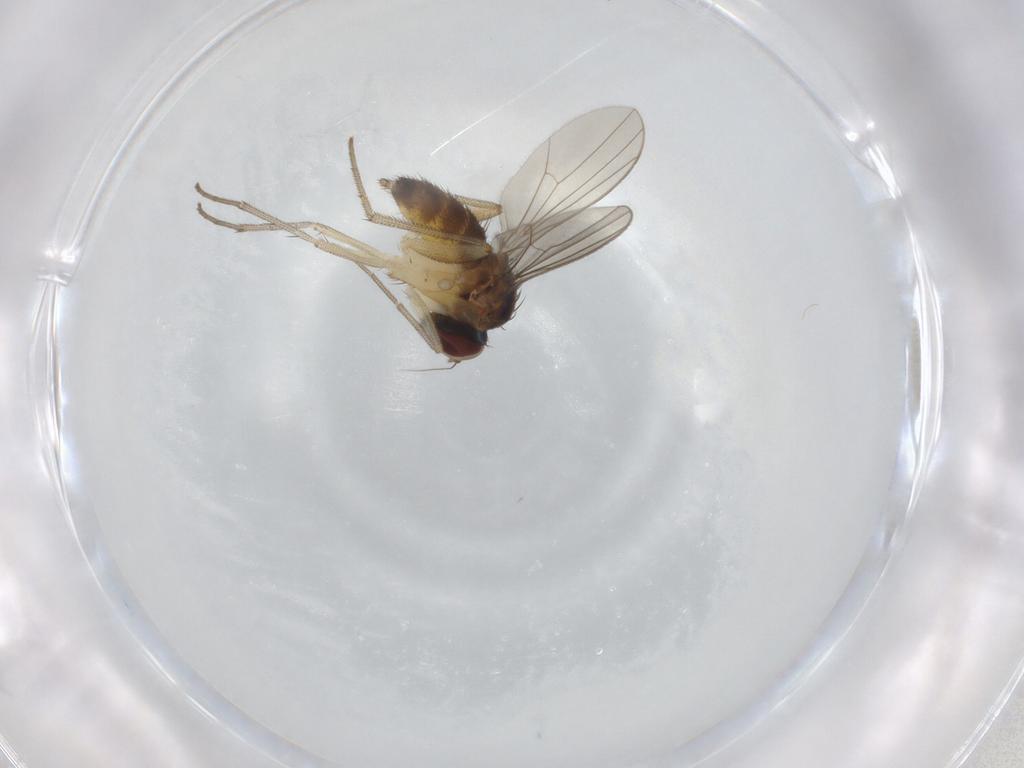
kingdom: Animalia
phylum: Arthropoda
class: Insecta
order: Diptera
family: Dolichopodidae
